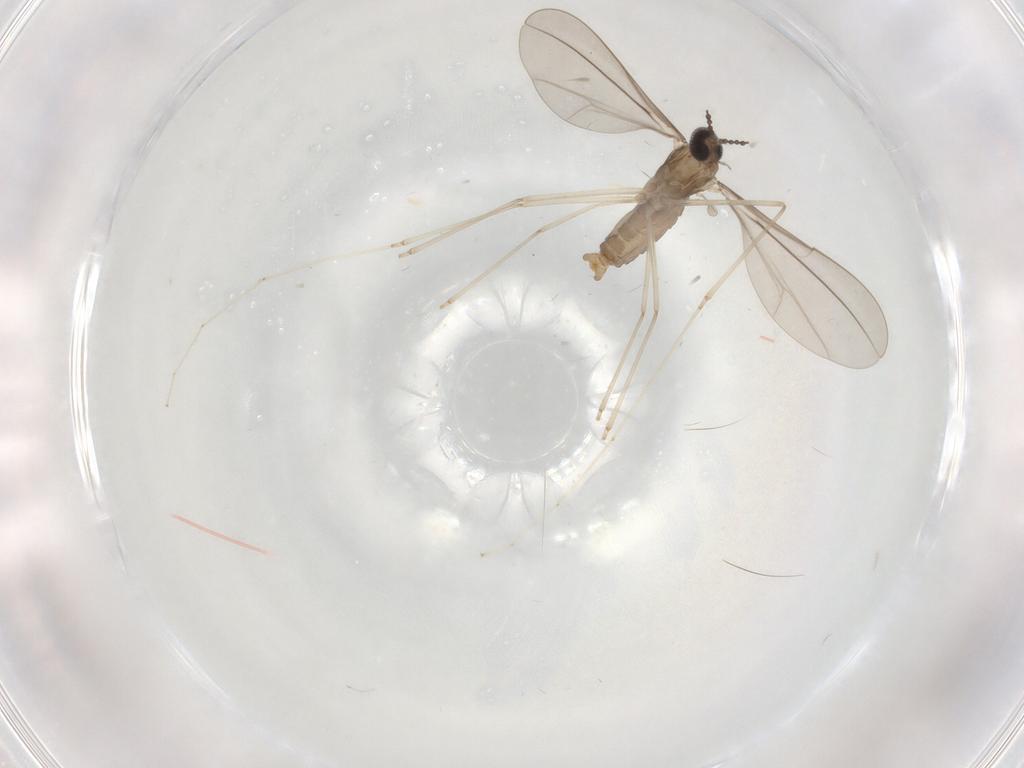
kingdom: Animalia
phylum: Arthropoda
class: Insecta
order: Diptera
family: Cecidomyiidae
